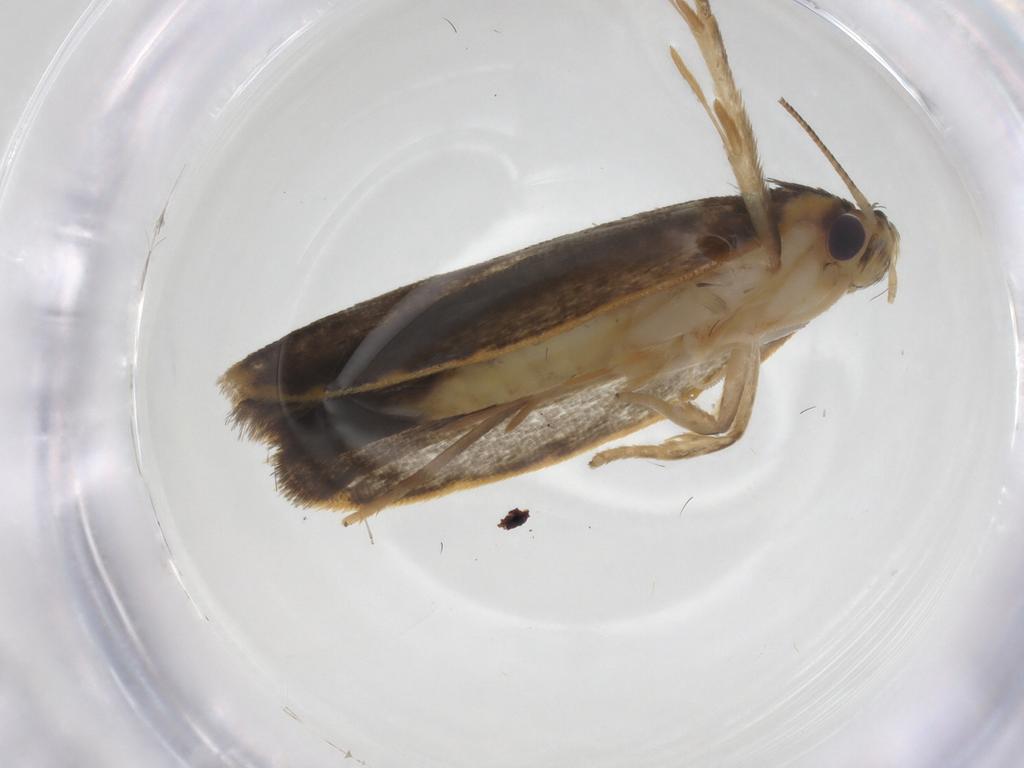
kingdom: Animalia
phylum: Arthropoda
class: Insecta
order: Lepidoptera
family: Depressariidae
